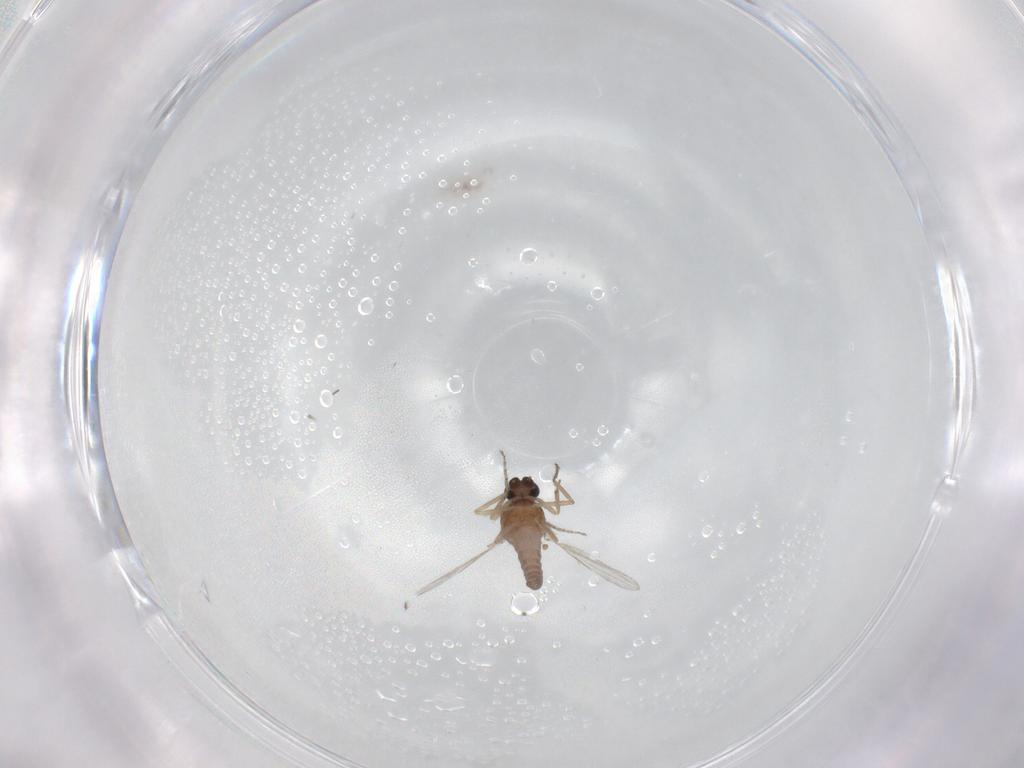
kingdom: Animalia
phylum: Arthropoda
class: Insecta
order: Diptera
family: Ceratopogonidae
